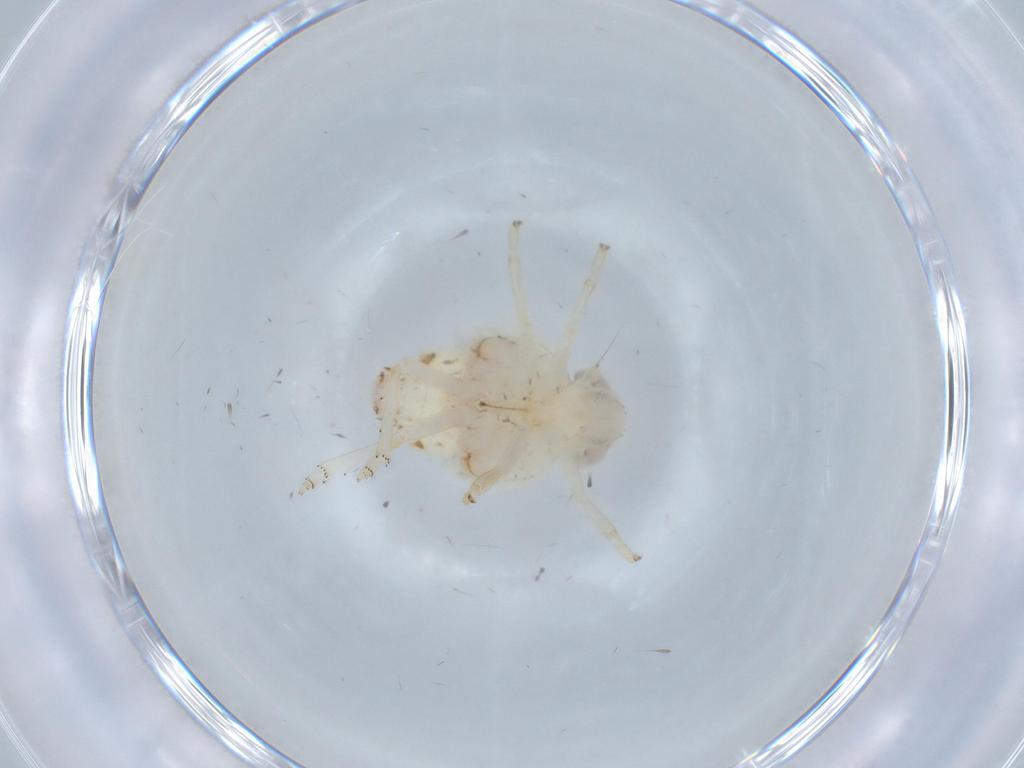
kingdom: Animalia
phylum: Arthropoda
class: Insecta
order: Hemiptera
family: Nogodinidae
